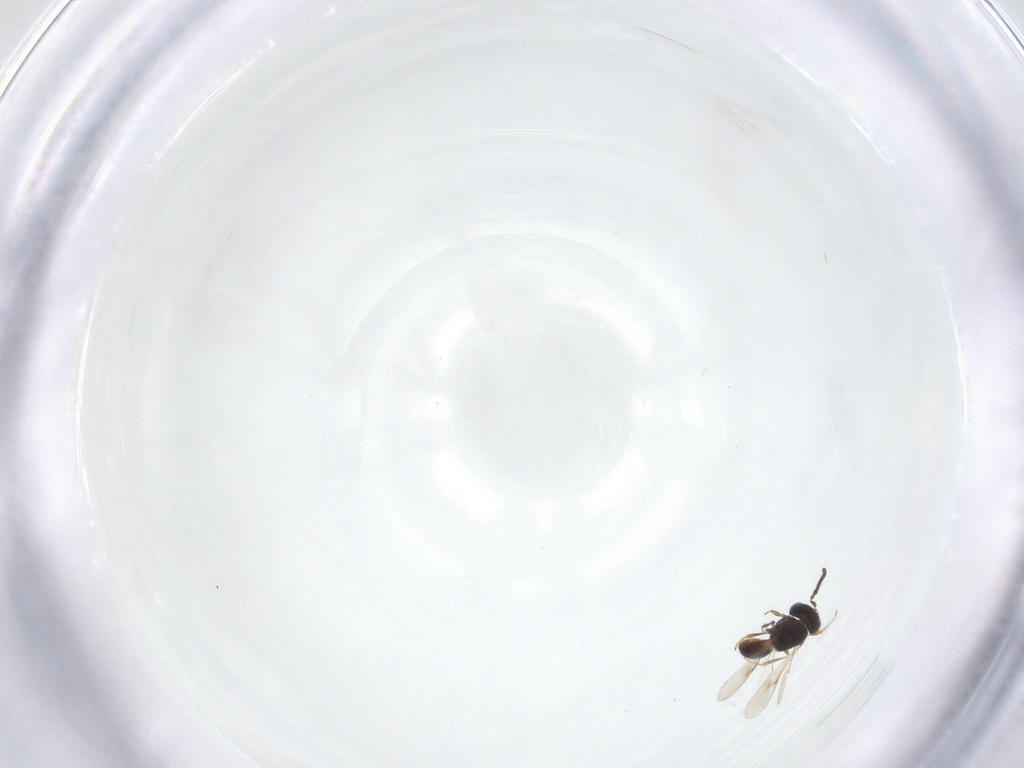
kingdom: Animalia
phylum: Arthropoda
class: Insecta
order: Hymenoptera
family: Scelionidae
